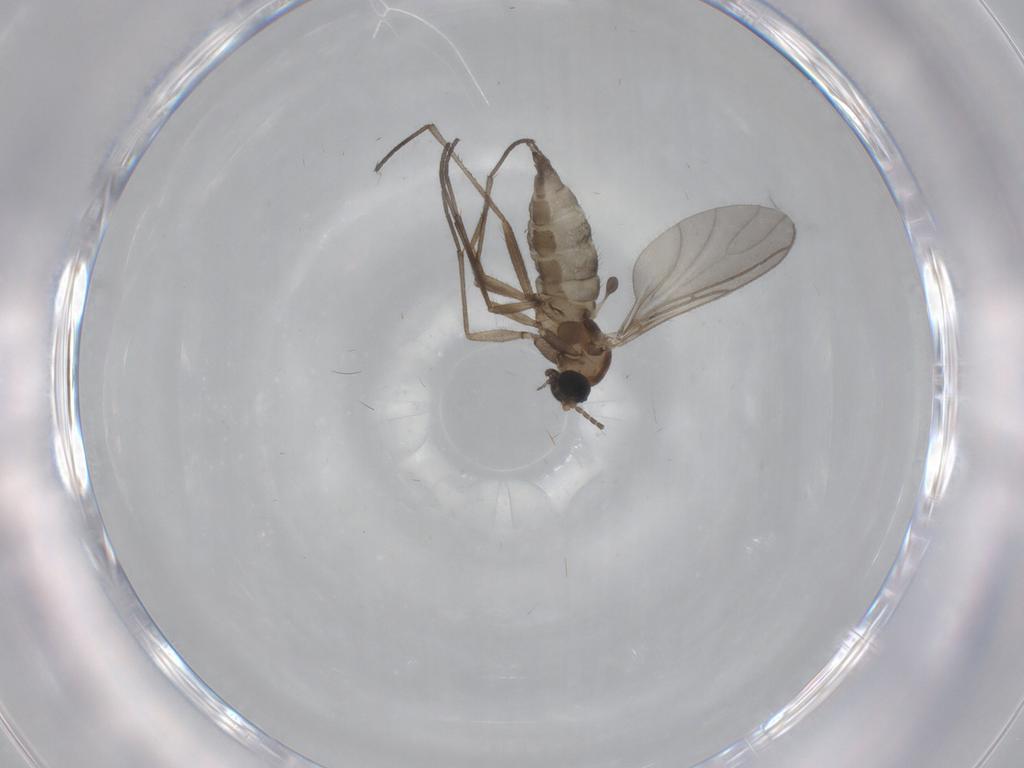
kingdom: Animalia
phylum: Arthropoda
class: Insecta
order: Diptera
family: Sciaridae
